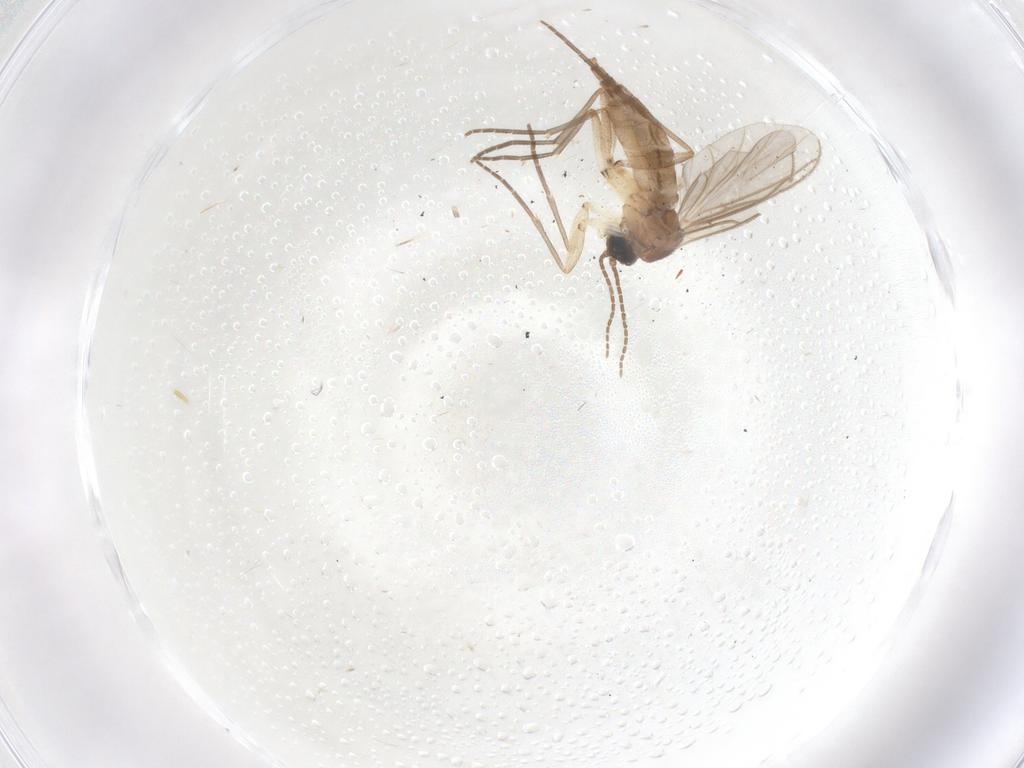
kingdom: Animalia
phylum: Arthropoda
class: Insecta
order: Diptera
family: Sciaridae
